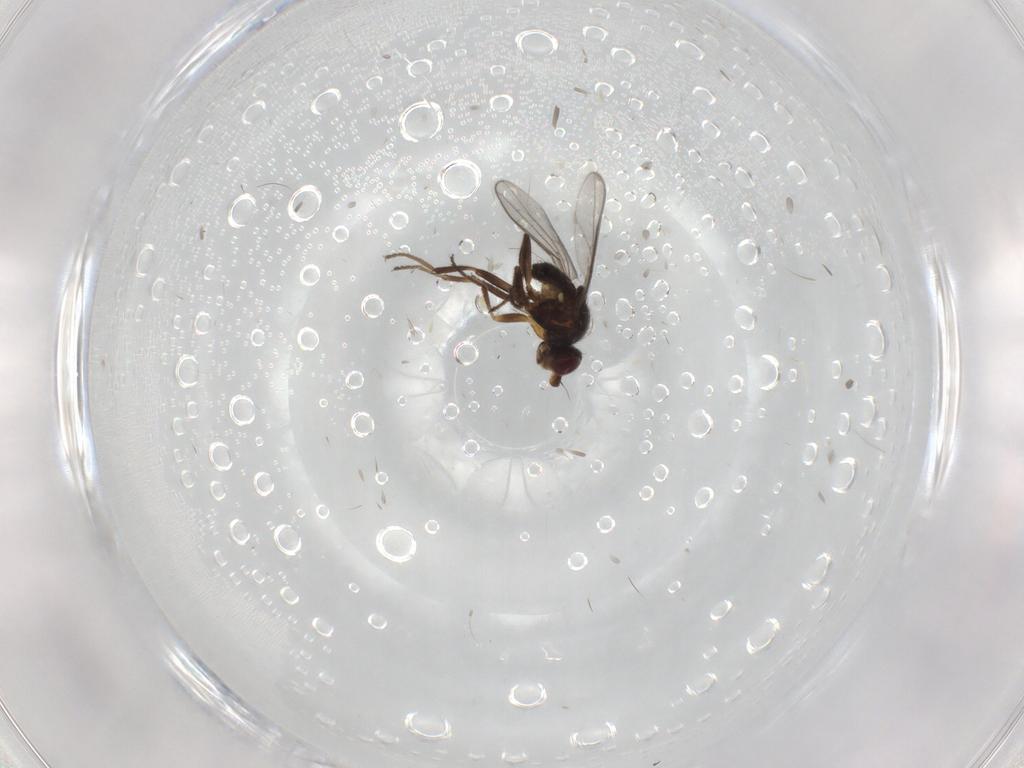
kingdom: Animalia
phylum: Arthropoda
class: Insecta
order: Diptera
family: Chloropidae
